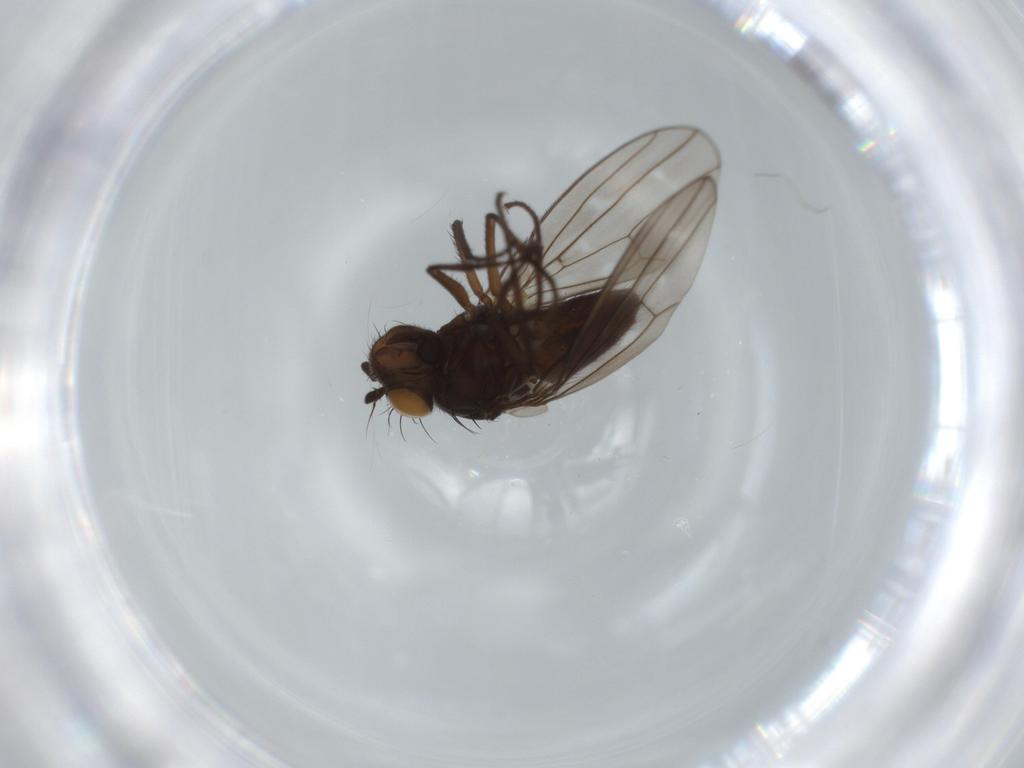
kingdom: Animalia
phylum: Arthropoda
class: Insecta
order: Diptera
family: Ephydridae
